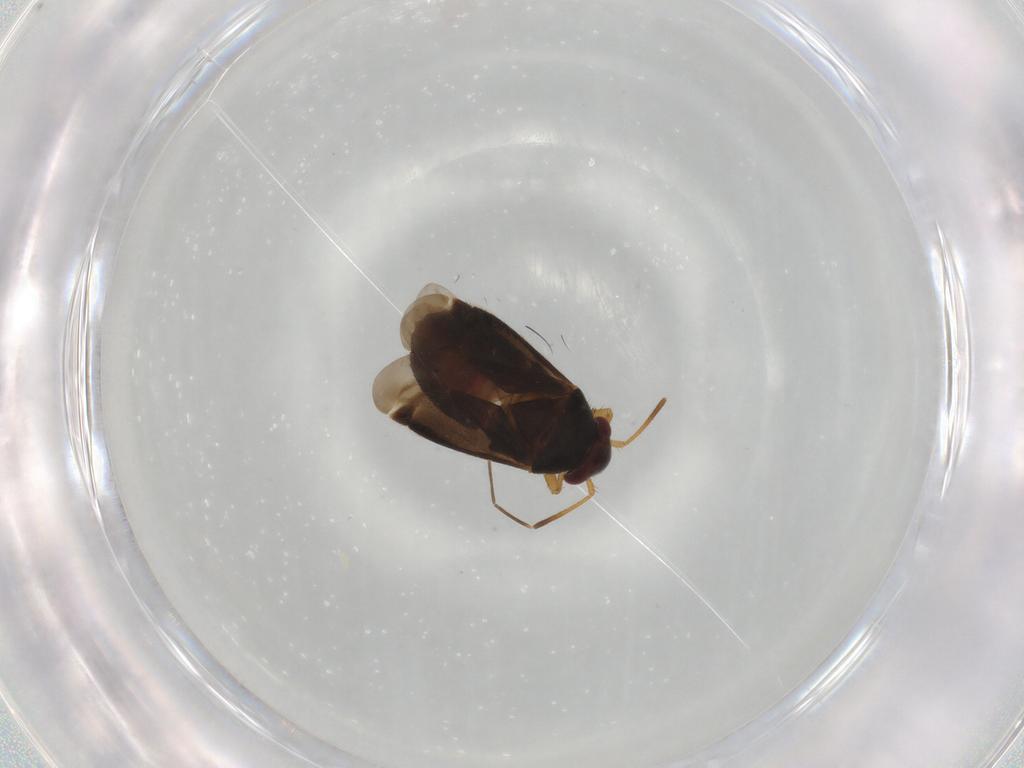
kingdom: Animalia
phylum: Arthropoda
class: Insecta
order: Hemiptera
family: Miridae
